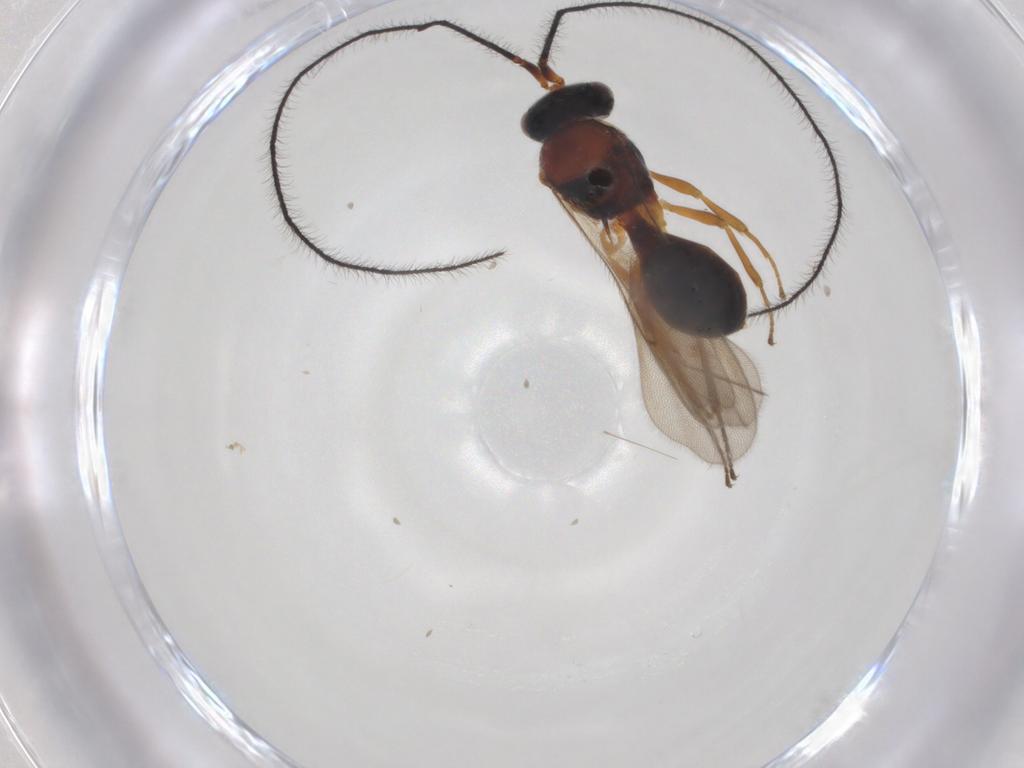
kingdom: Animalia
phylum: Arthropoda
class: Insecta
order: Hymenoptera
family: Scelionidae
